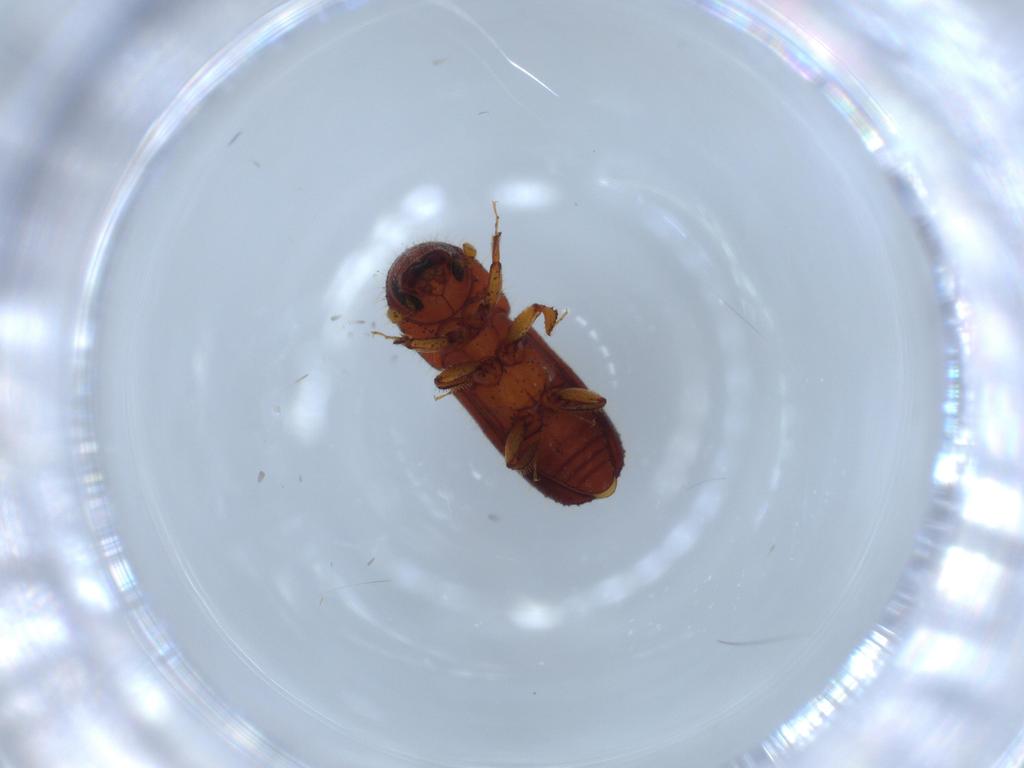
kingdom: Animalia
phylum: Arthropoda
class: Insecta
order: Coleoptera
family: Curculionidae
